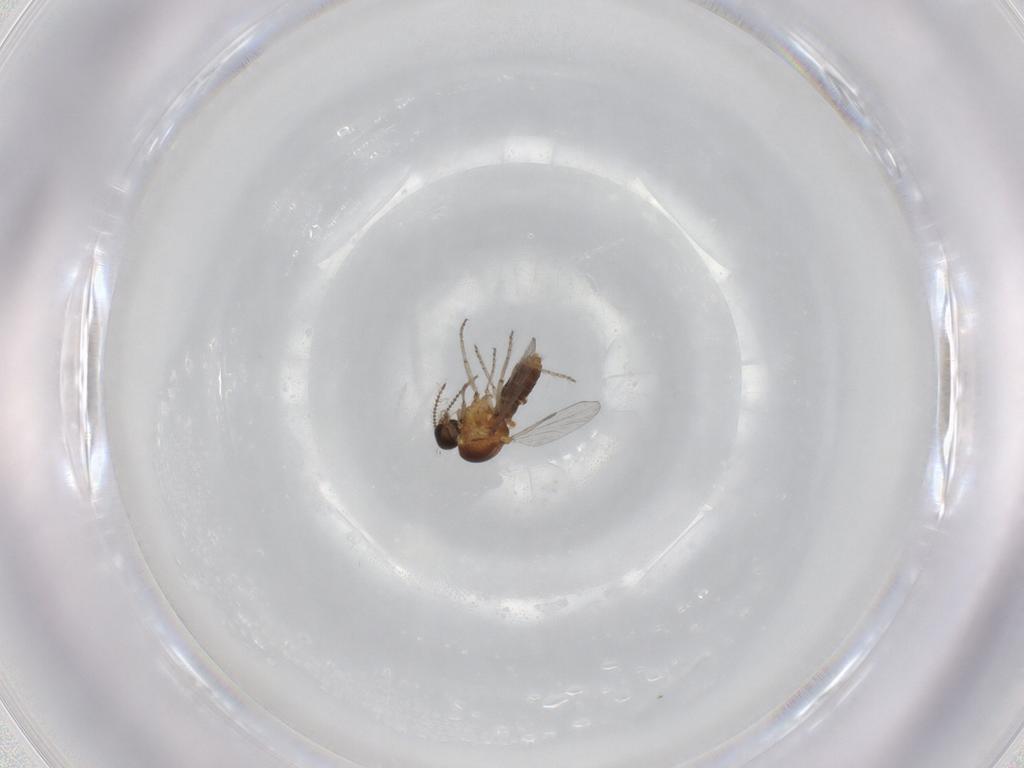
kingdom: Animalia
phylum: Arthropoda
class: Insecta
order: Diptera
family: Ceratopogonidae
